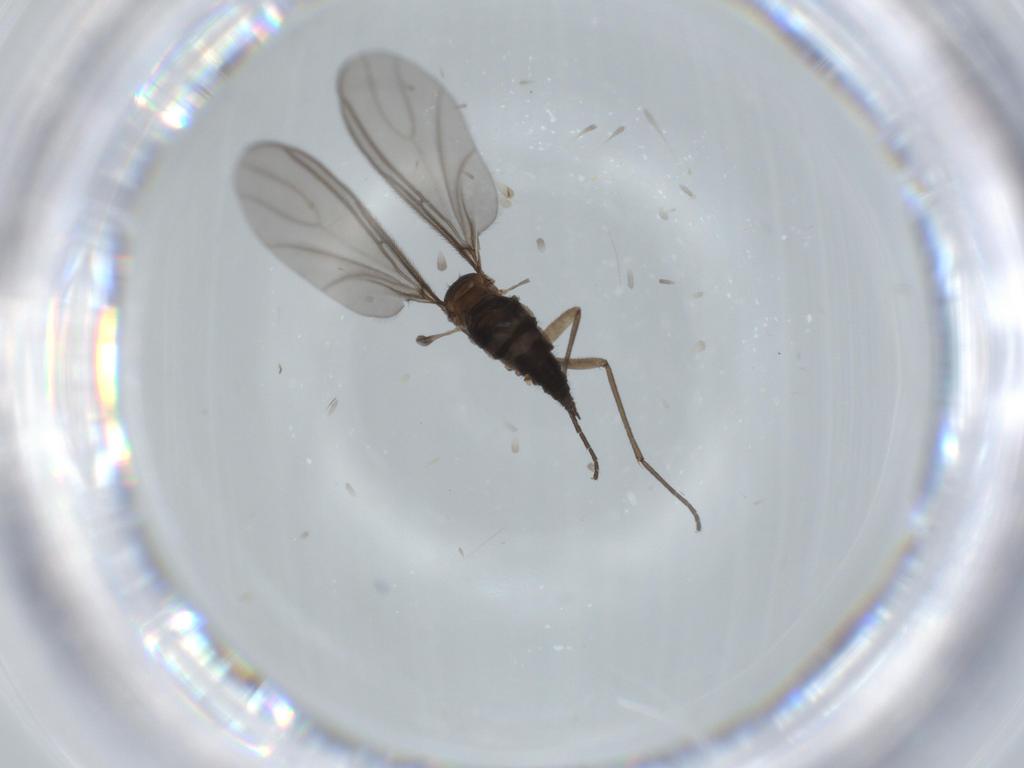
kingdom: Animalia
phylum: Arthropoda
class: Insecta
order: Diptera
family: Sciaridae
